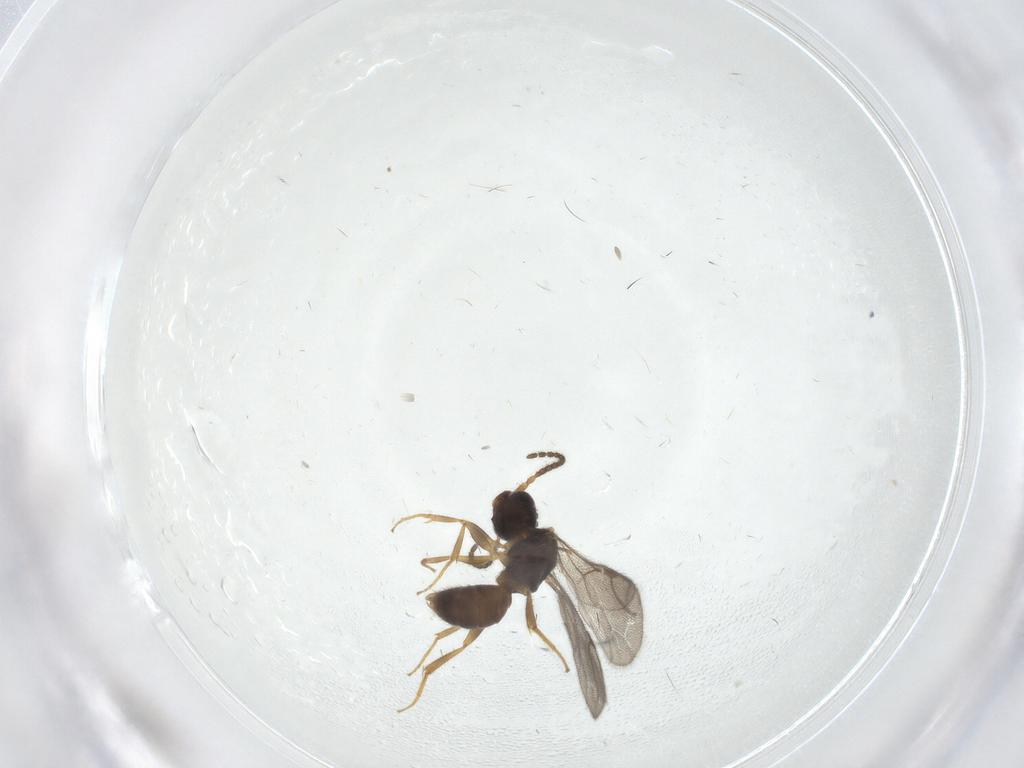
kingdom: Animalia
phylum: Arthropoda
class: Insecta
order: Hymenoptera
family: Bethylidae
